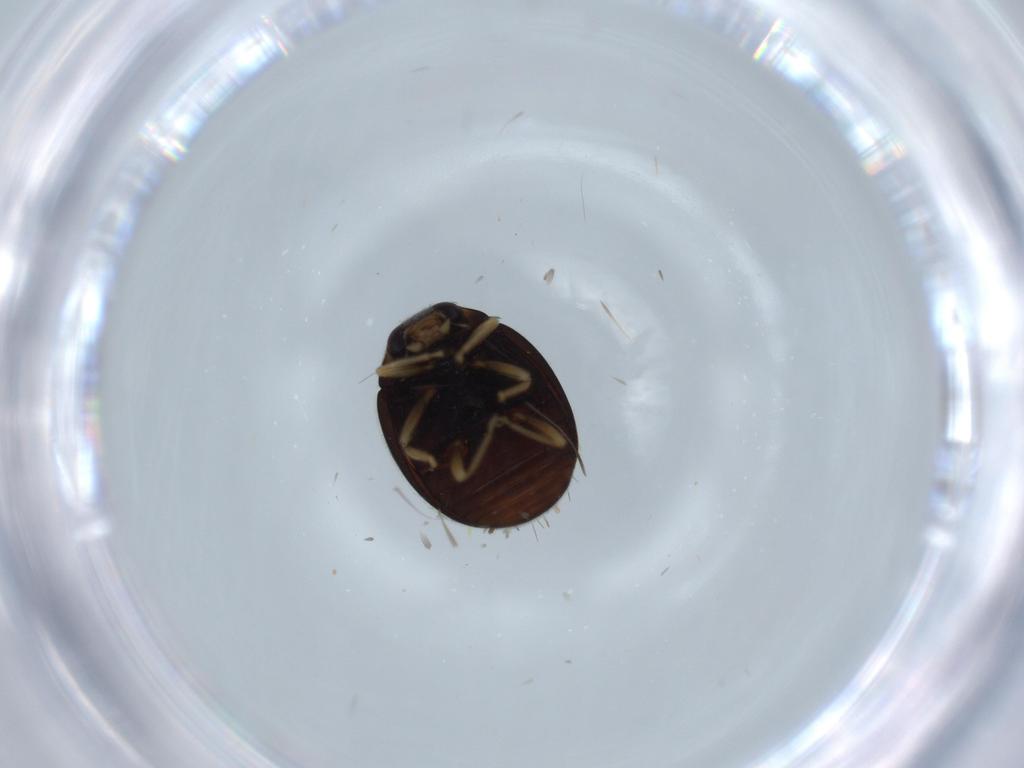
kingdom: Animalia
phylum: Arthropoda
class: Insecta
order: Coleoptera
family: Coccinellidae
